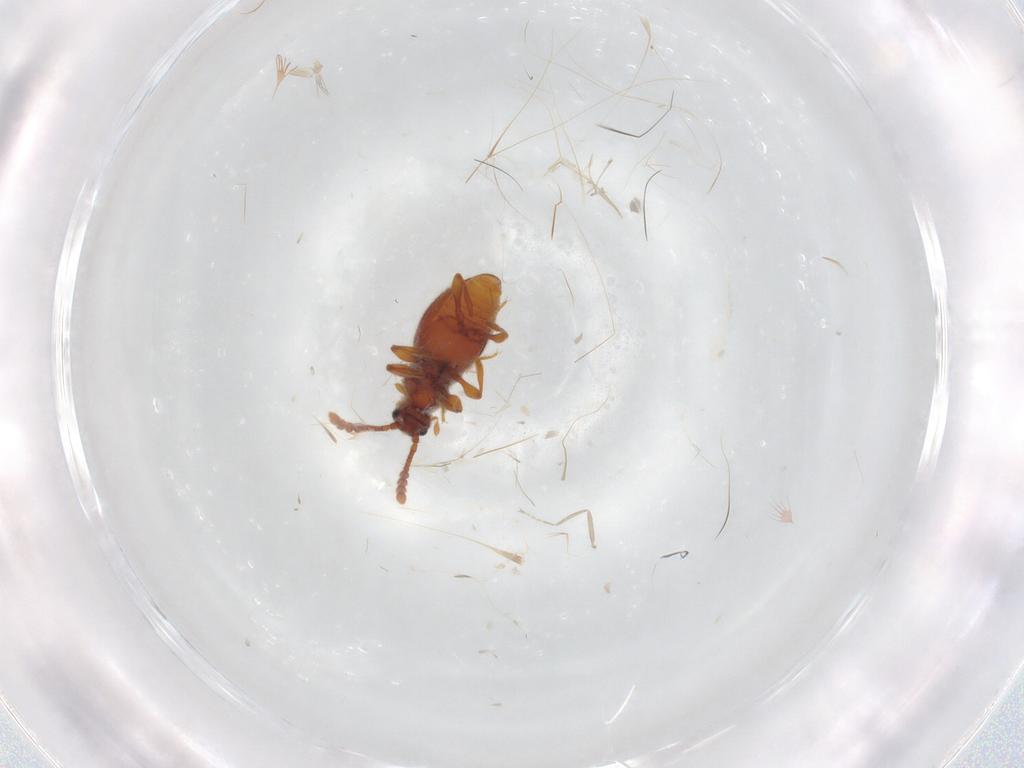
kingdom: Animalia
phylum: Arthropoda
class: Insecta
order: Coleoptera
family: Staphylinidae
